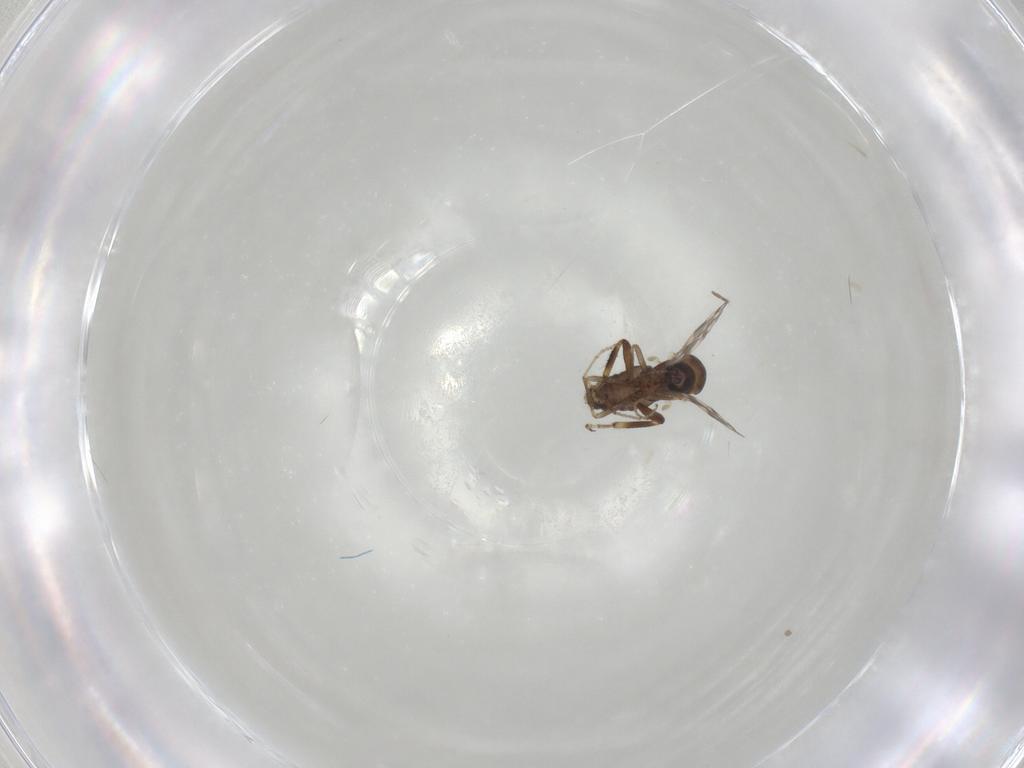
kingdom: Animalia
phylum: Arthropoda
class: Insecta
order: Diptera
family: Ceratopogonidae
